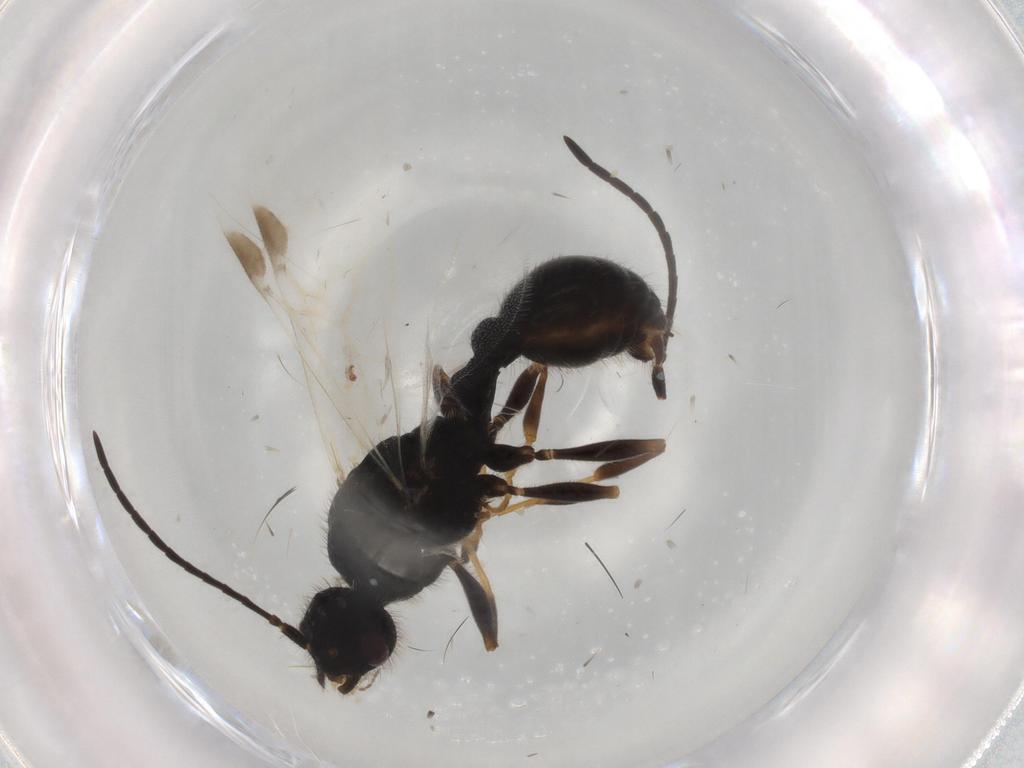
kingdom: Animalia
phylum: Arthropoda
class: Insecta
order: Hymenoptera
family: Formicidae
